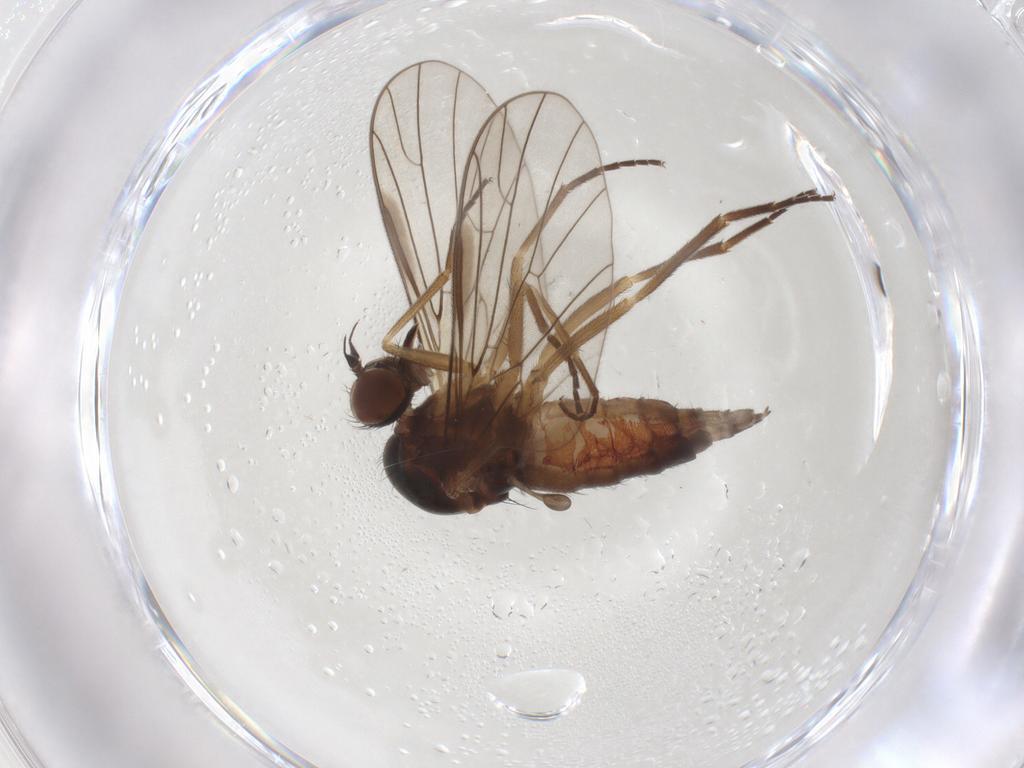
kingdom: Animalia
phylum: Arthropoda
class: Insecta
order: Diptera
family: Empididae
